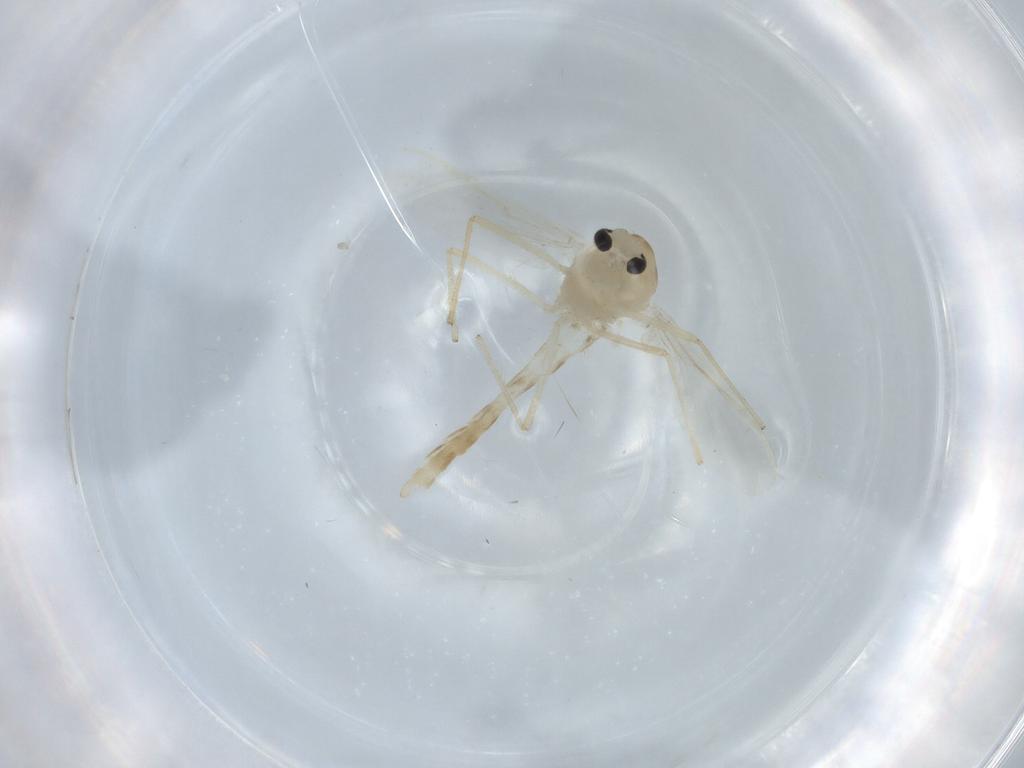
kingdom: Animalia
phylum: Arthropoda
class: Insecta
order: Diptera
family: Chironomidae
